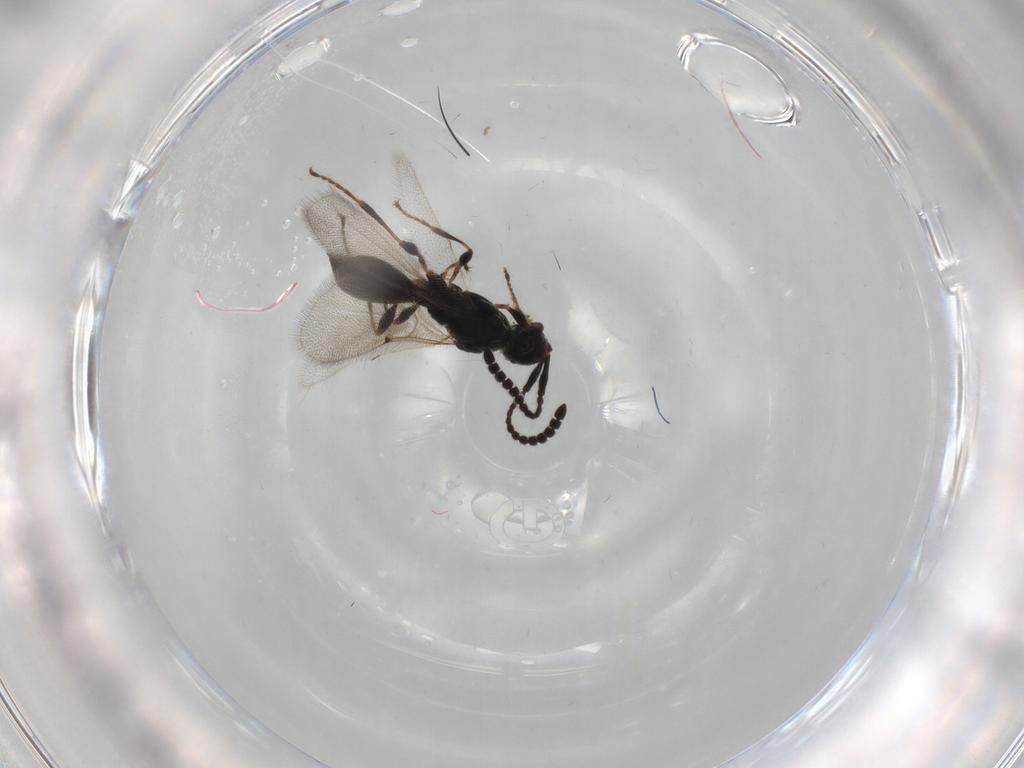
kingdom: Animalia
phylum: Arthropoda
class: Insecta
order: Hymenoptera
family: Diapriidae
